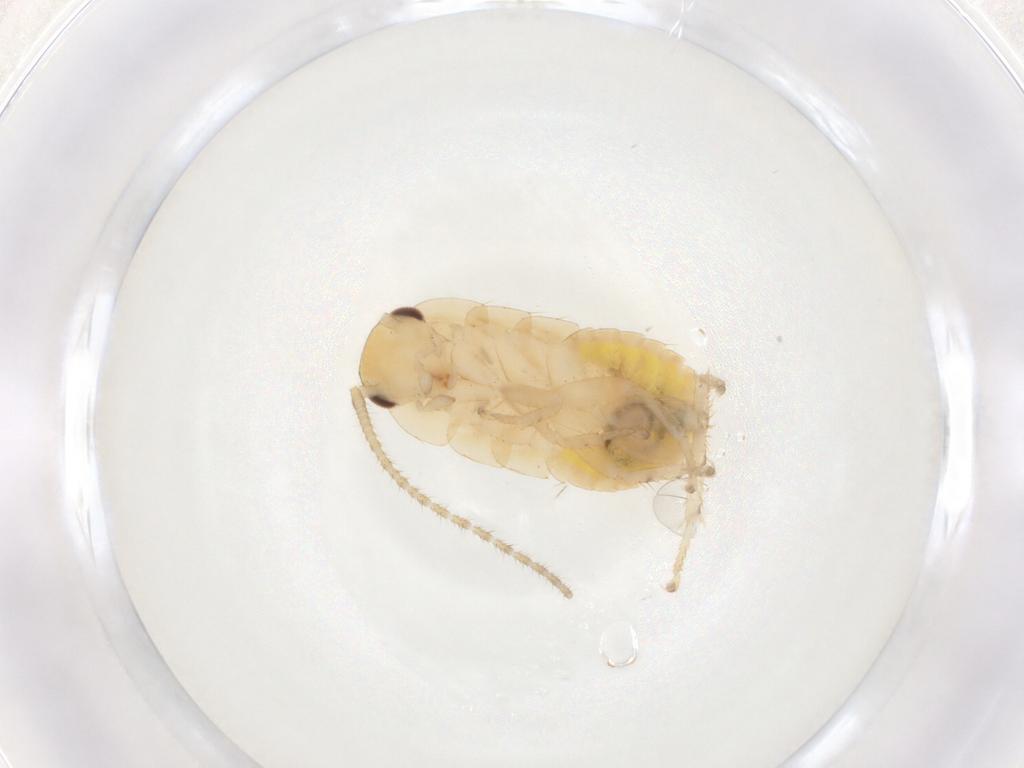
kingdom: Animalia
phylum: Arthropoda
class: Insecta
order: Blattodea
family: Ectobiidae
